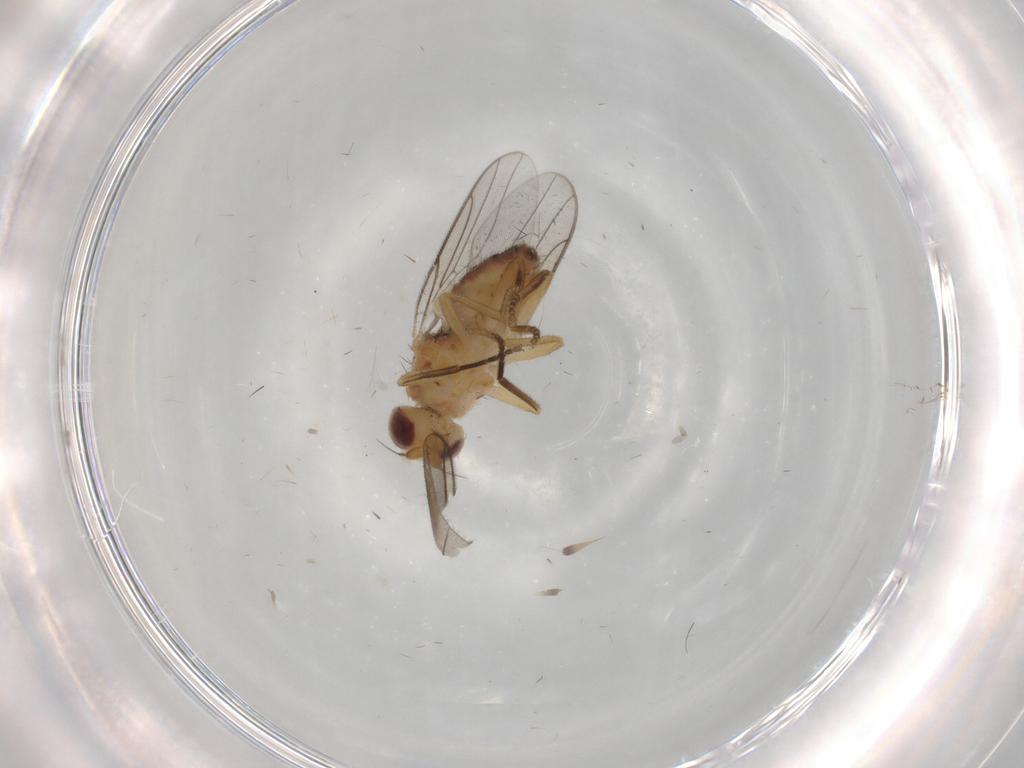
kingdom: Animalia
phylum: Arthropoda
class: Insecta
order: Diptera
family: Chloropidae
